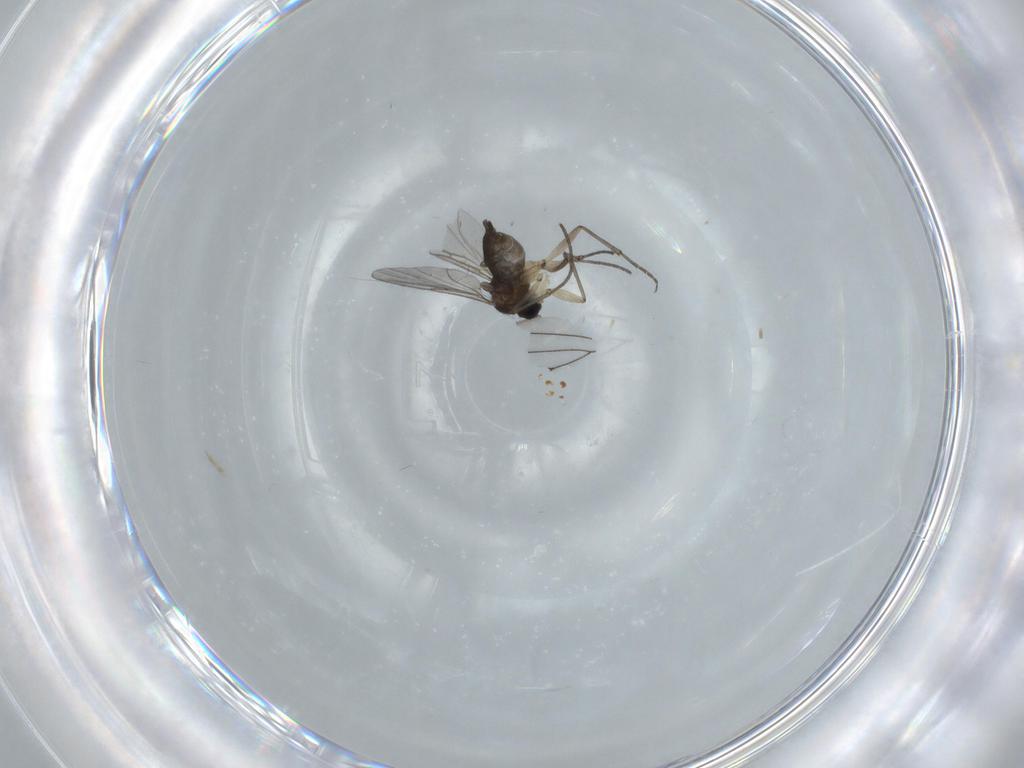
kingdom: Animalia
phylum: Arthropoda
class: Insecta
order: Diptera
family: Sciaridae
